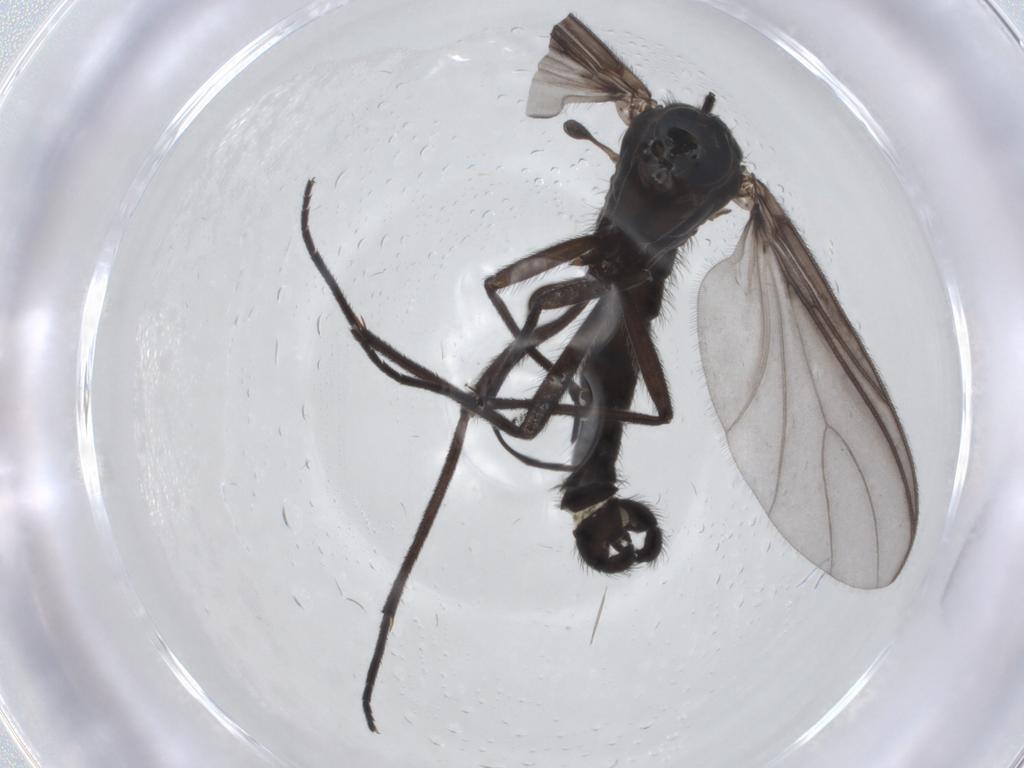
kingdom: Animalia
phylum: Arthropoda
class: Insecta
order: Diptera
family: Sciaridae
